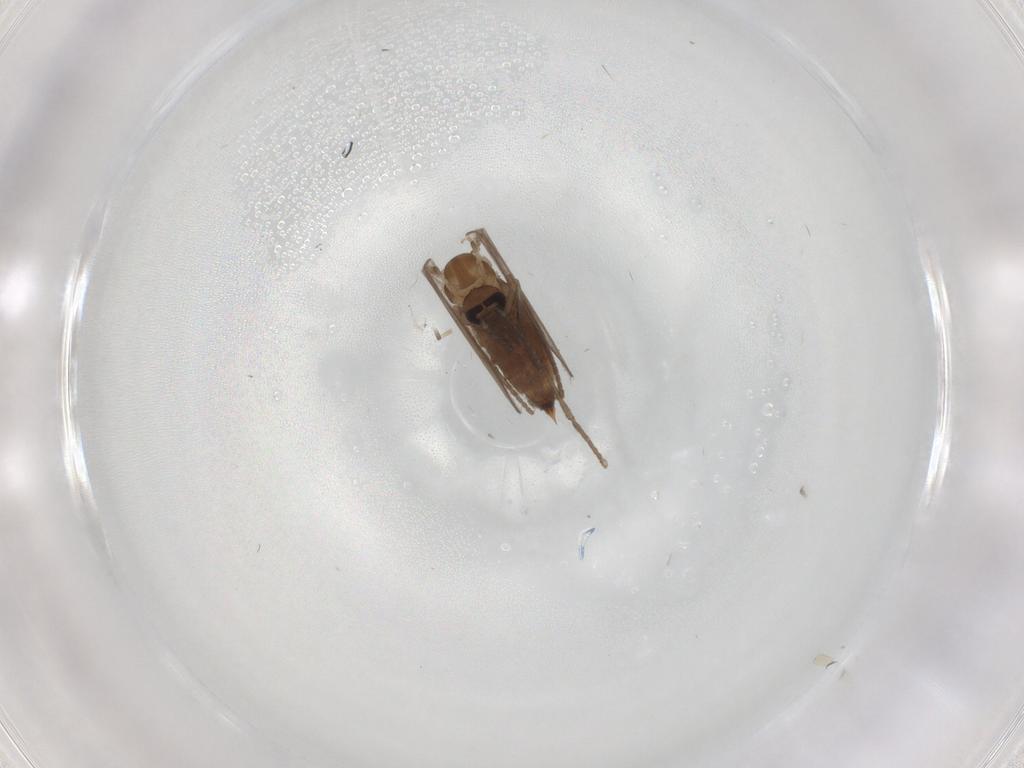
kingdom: Animalia
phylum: Arthropoda
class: Insecta
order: Diptera
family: Psychodidae
